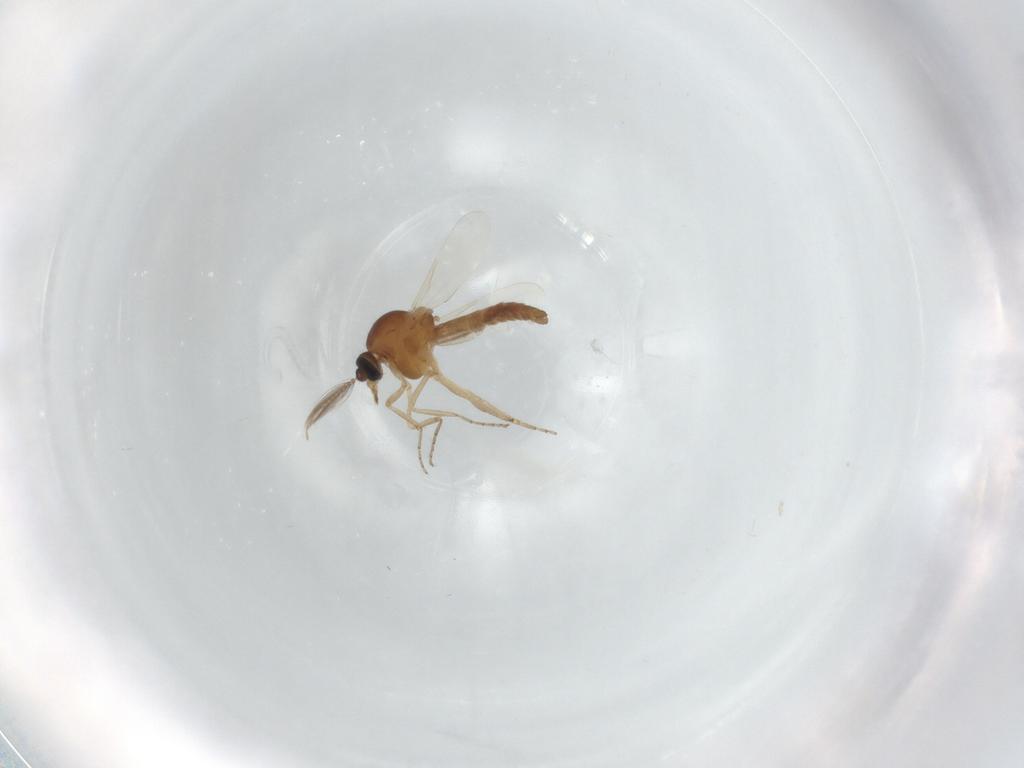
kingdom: Animalia
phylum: Arthropoda
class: Insecta
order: Diptera
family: Ceratopogonidae
